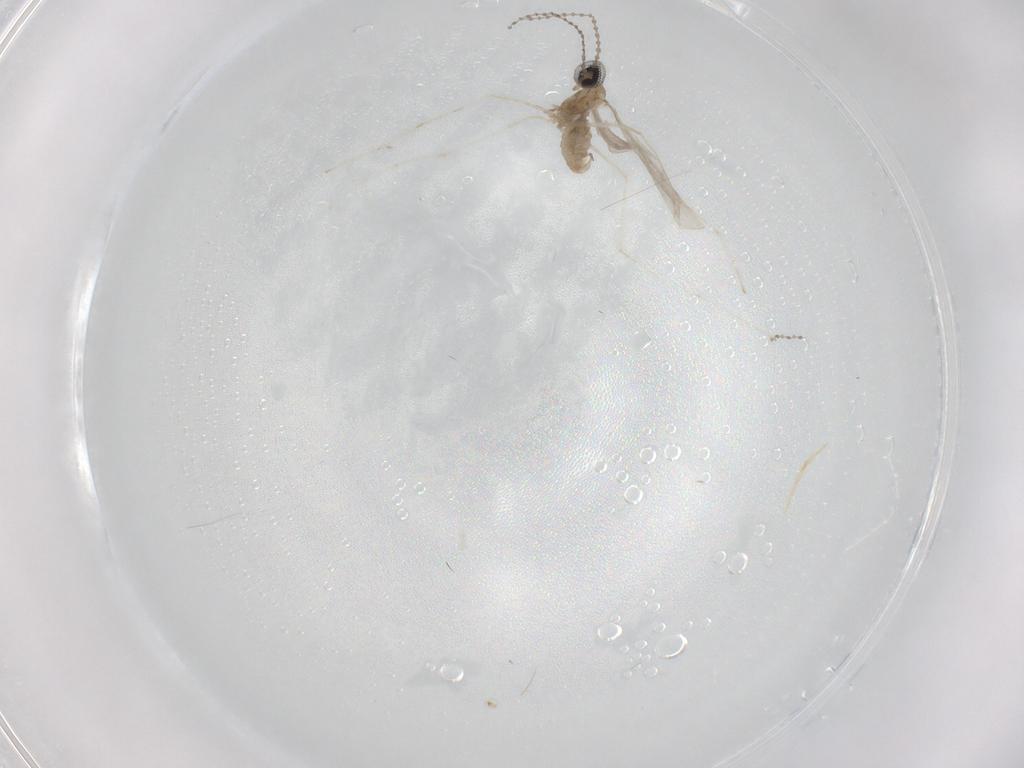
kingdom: Animalia
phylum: Arthropoda
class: Insecta
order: Diptera
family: Cecidomyiidae
